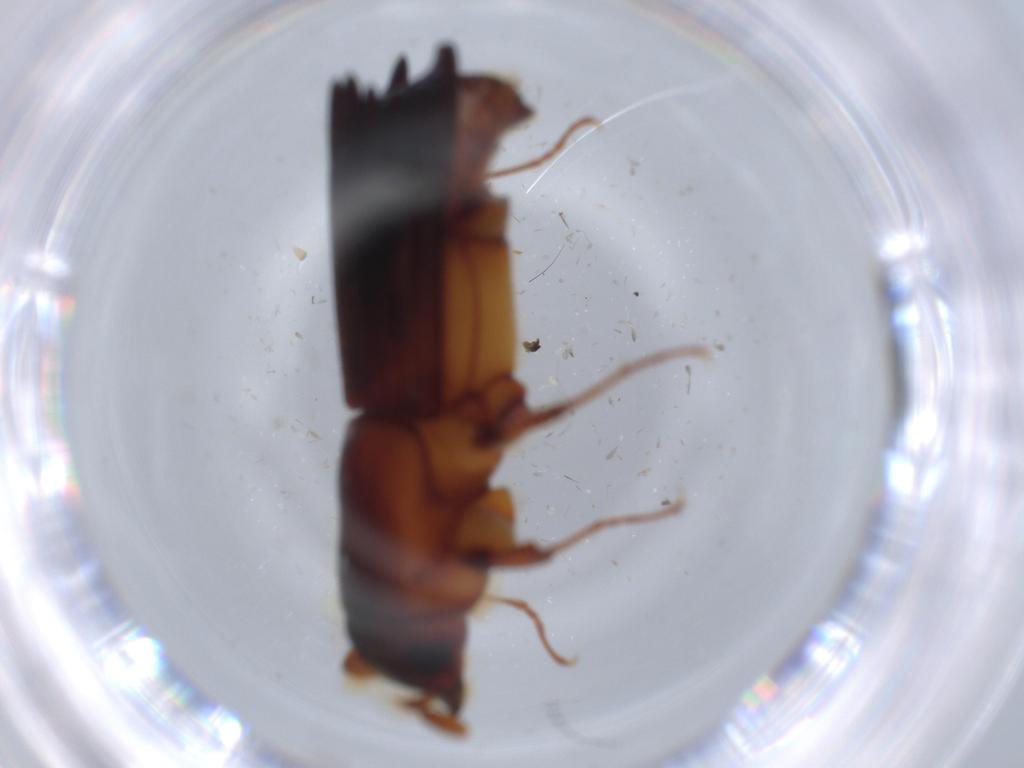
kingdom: Animalia
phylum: Arthropoda
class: Insecta
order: Coleoptera
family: Curculionidae
